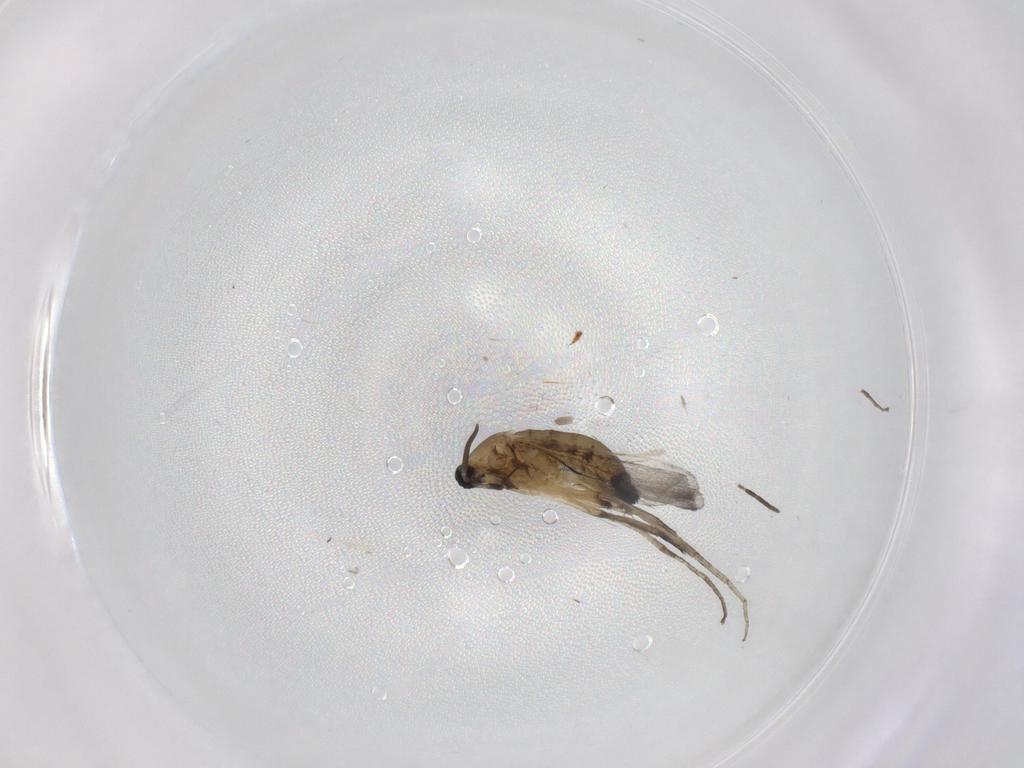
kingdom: Animalia
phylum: Arthropoda
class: Insecta
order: Diptera
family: Cecidomyiidae
